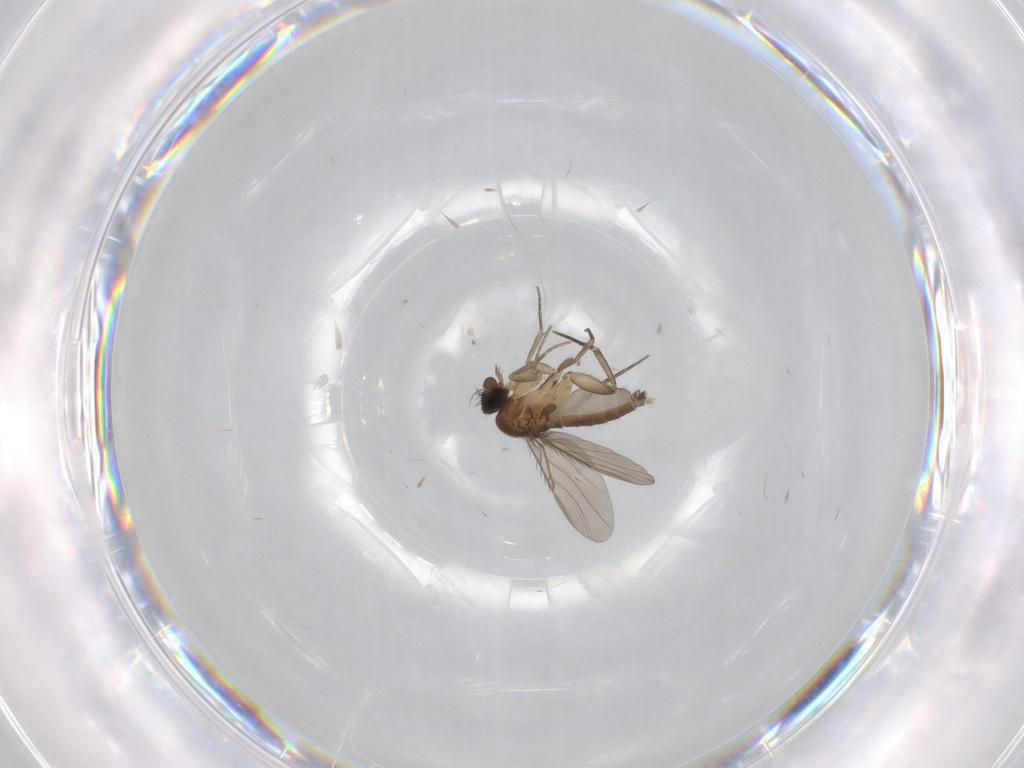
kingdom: Animalia
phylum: Arthropoda
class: Insecta
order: Diptera
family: Phoridae
